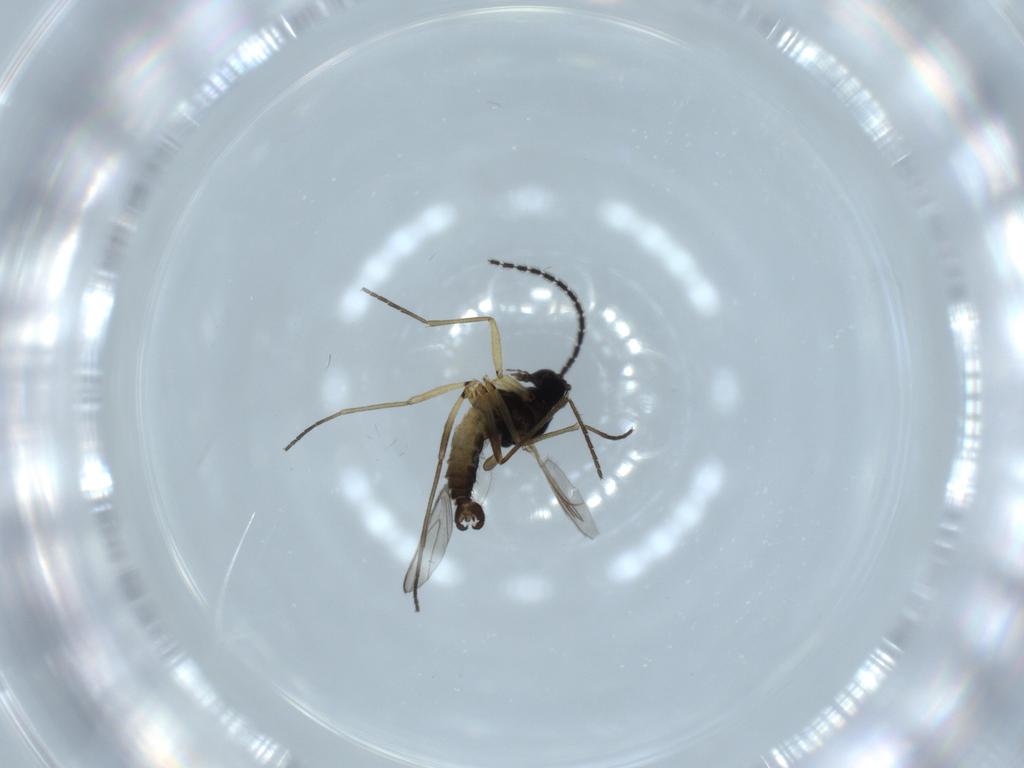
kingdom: Animalia
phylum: Arthropoda
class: Insecta
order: Diptera
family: Sciaridae
